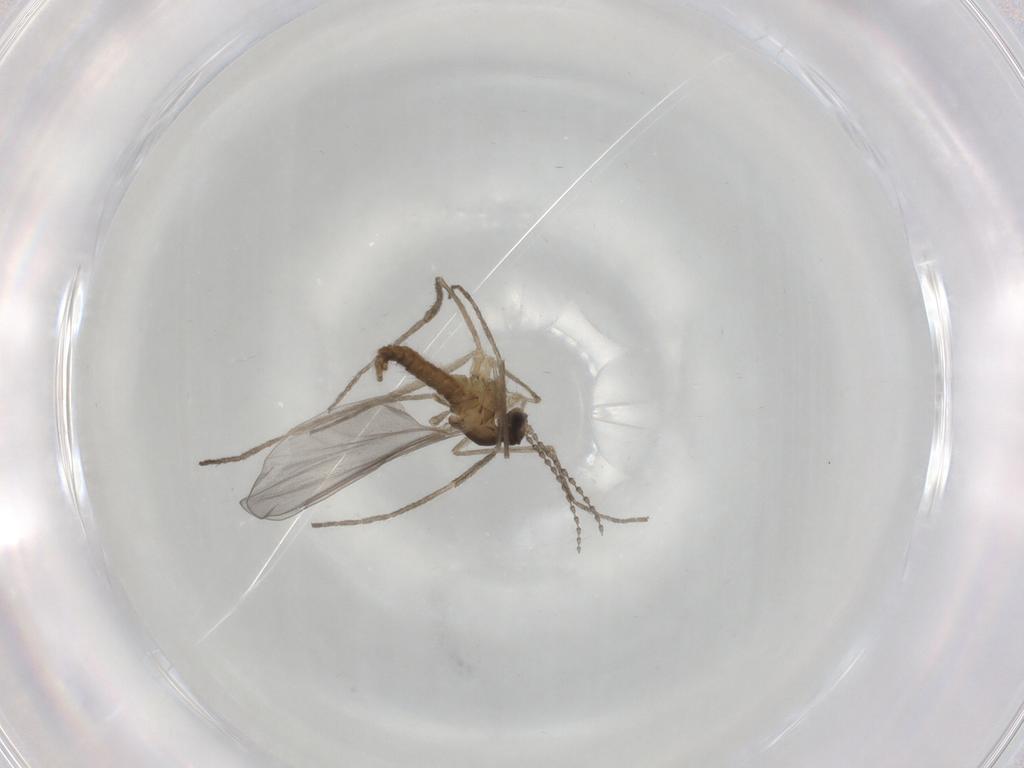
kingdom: Animalia
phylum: Arthropoda
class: Insecta
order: Diptera
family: Cecidomyiidae
